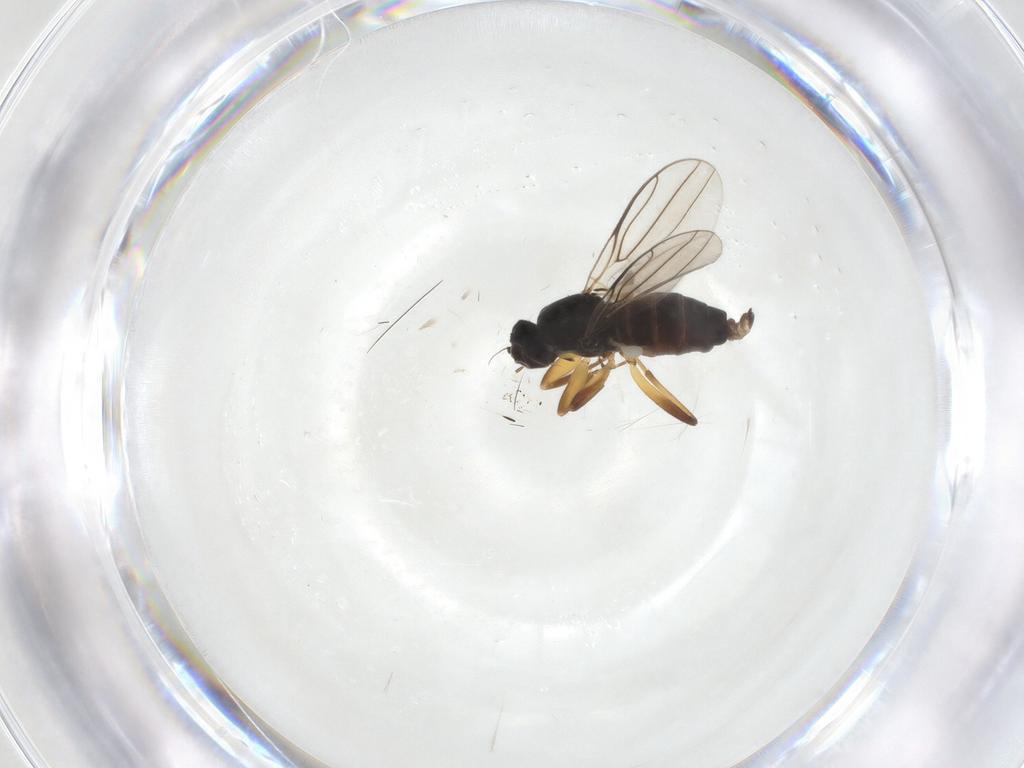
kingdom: Animalia
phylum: Arthropoda
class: Insecta
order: Diptera
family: Hybotidae
